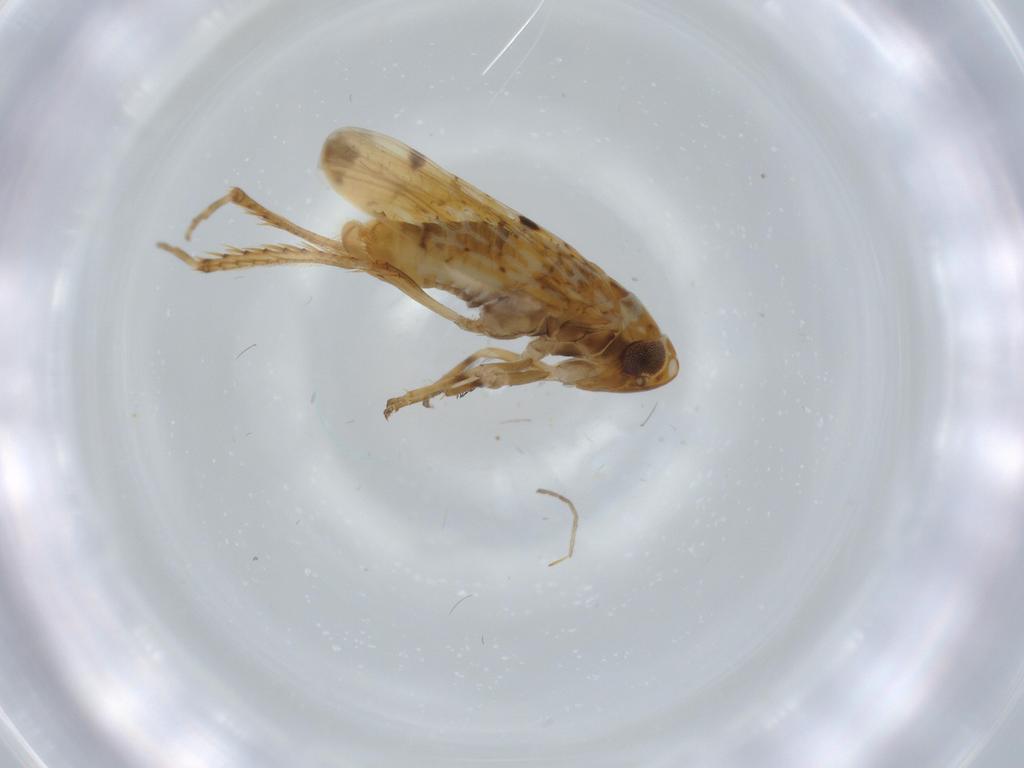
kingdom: Animalia
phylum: Arthropoda
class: Insecta
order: Hemiptera
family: Cicadellidae
